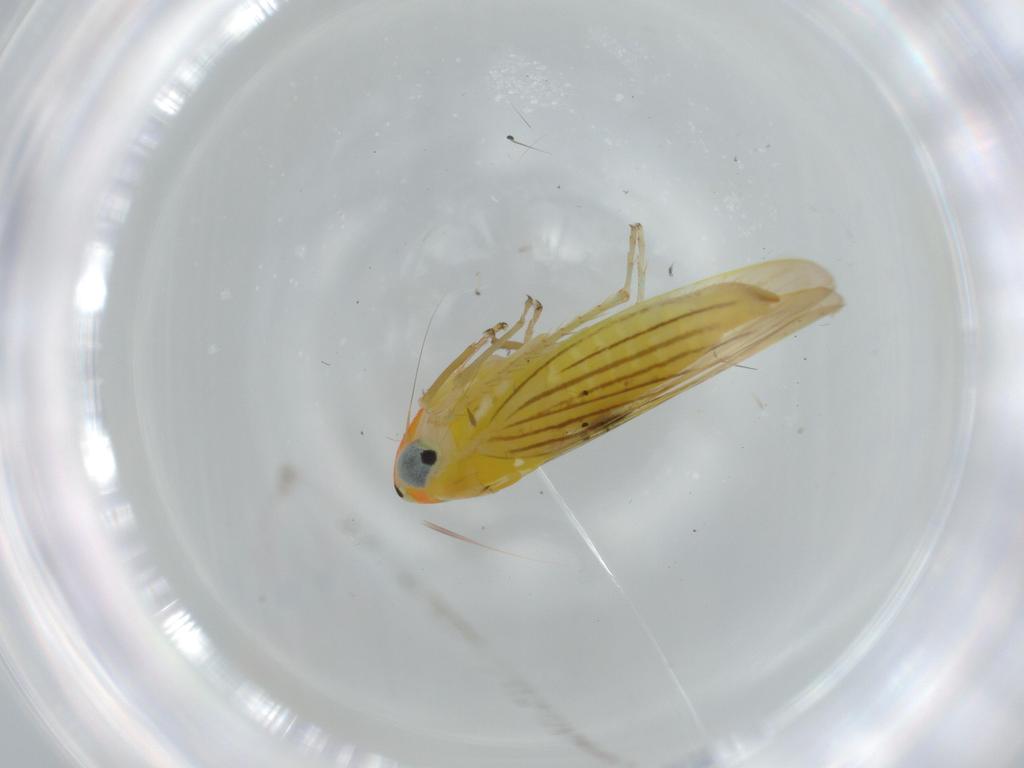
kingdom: Animalia
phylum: Arthropoda
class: Insecta
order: Hemiptera
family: Cicadellidae
